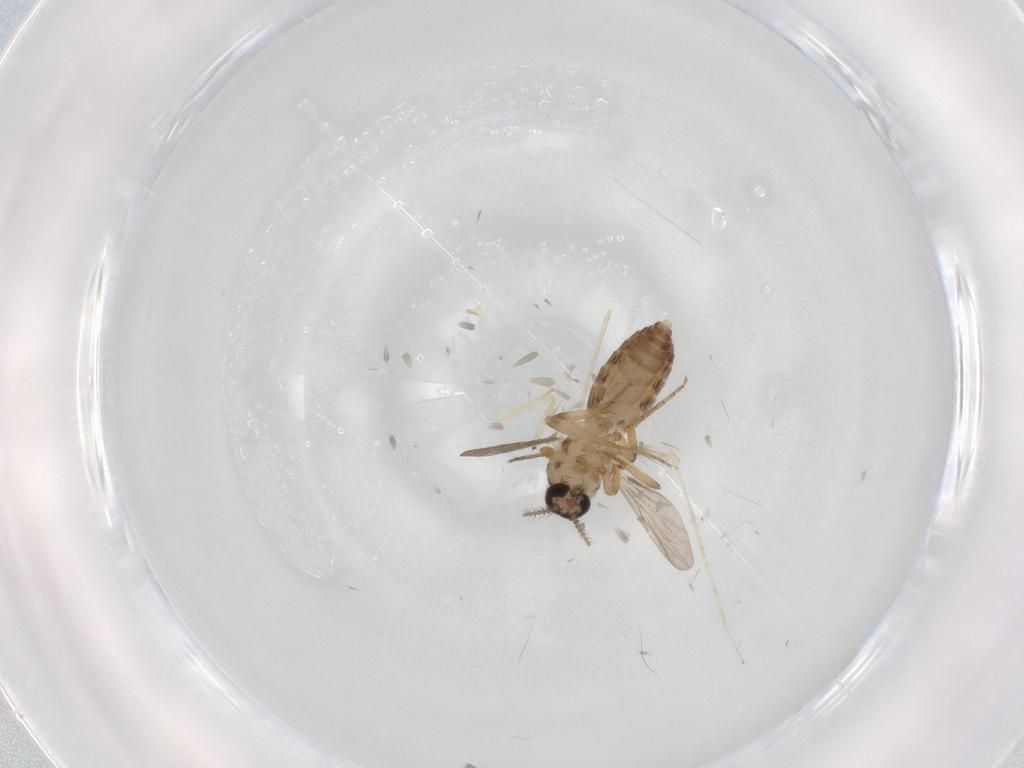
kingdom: Animalia
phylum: Arthropoda
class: Insecta
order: Diptera
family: Ceratopogonidae
